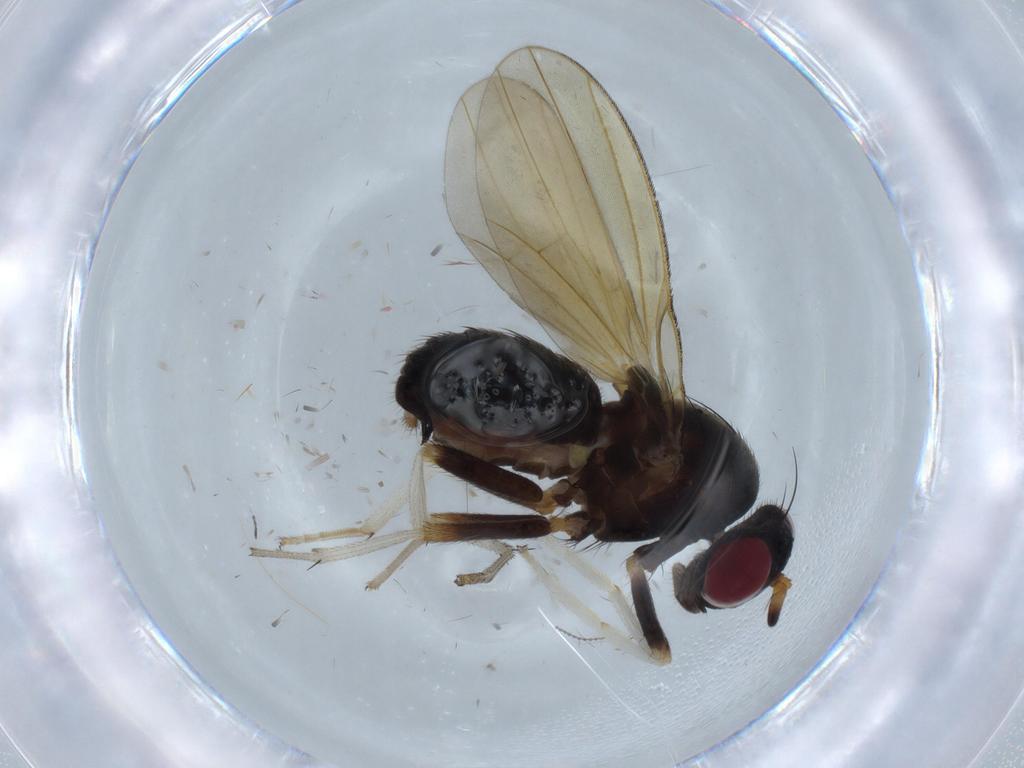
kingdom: Animalia
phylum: Arthropoda
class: Insecta
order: Diptera
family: Sciaridae
